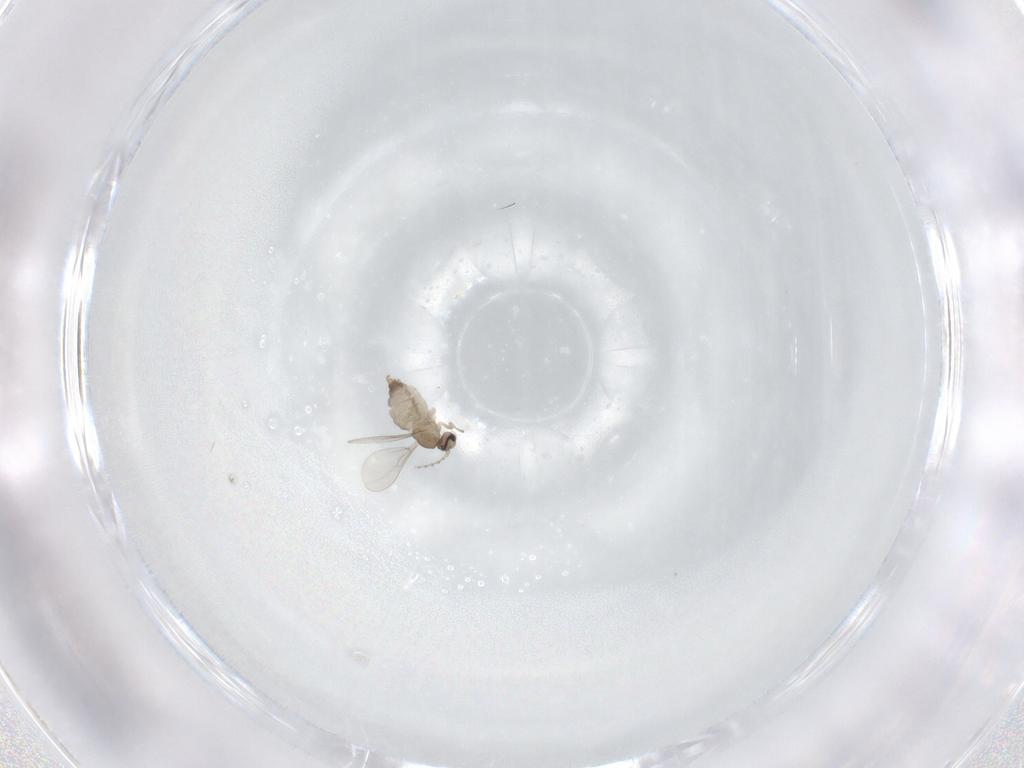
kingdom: Animalia
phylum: Arthropoda
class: Insecta
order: Diptera
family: Cecidomyiidae
